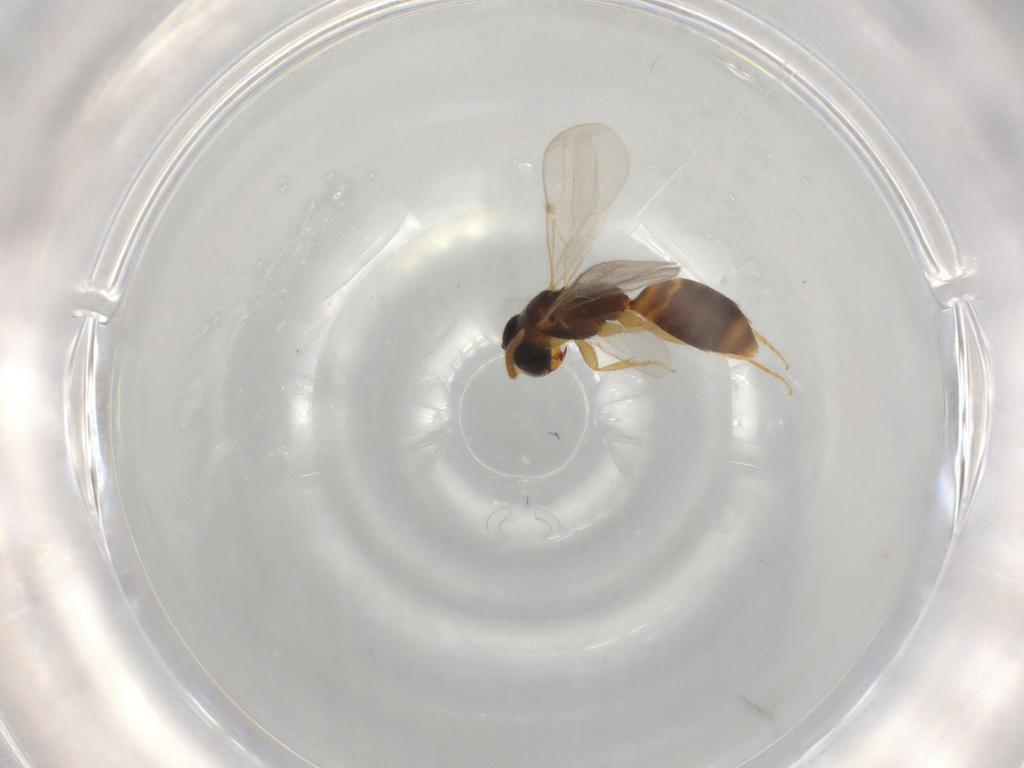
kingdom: Animalia
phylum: Arthropoda
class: Insecta
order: Hymenoptera
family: Bethylidae
